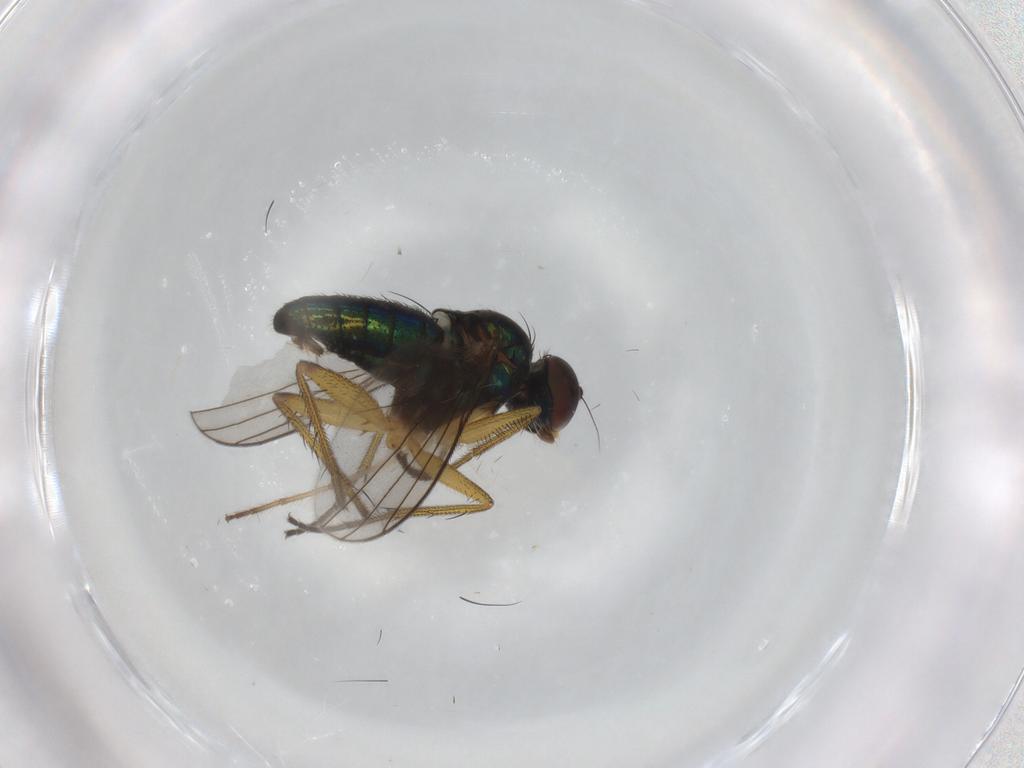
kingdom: Animalia
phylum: Arthropoda
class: Insecta
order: Diptera
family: Dolichopodidae
